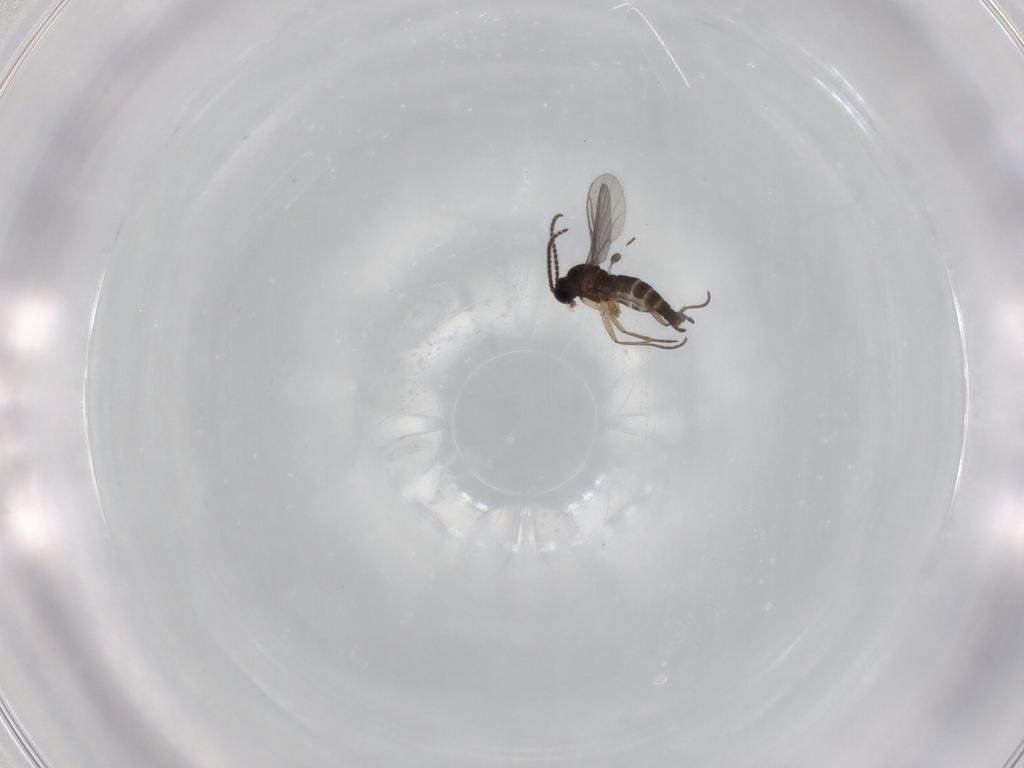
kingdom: Animalia
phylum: Arthropoda
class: Insecta
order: Diptera
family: Sciaridae
